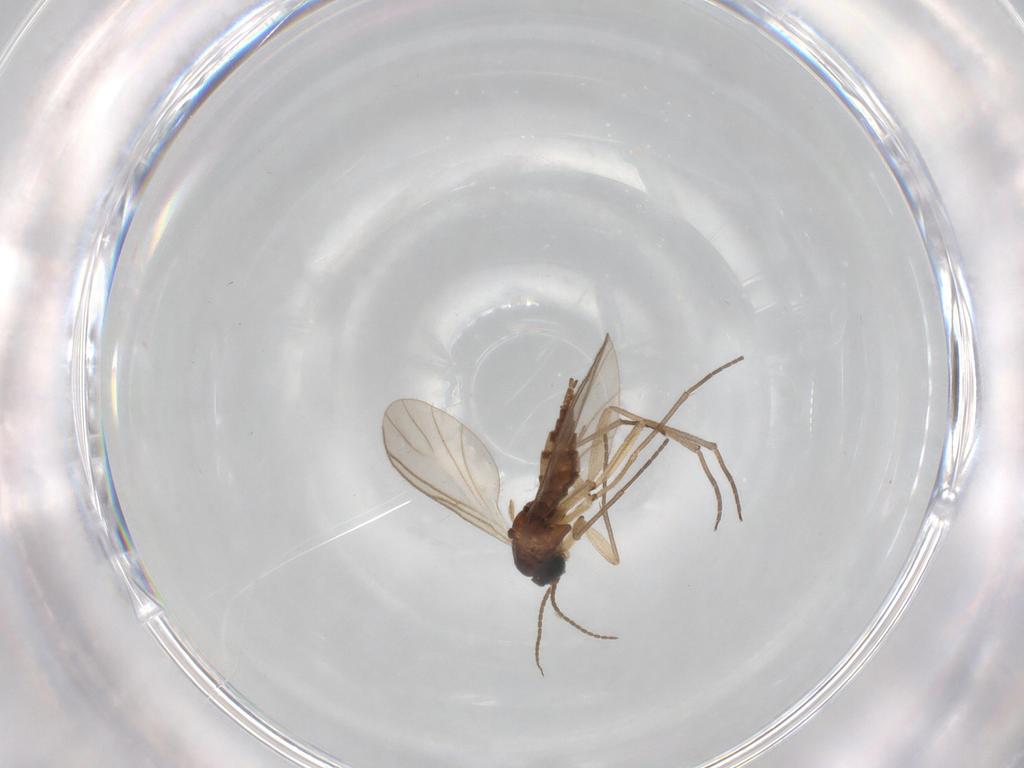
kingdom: Animalia
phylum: Arthropoda
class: Insecta
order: Diptera
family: Sciaridae
